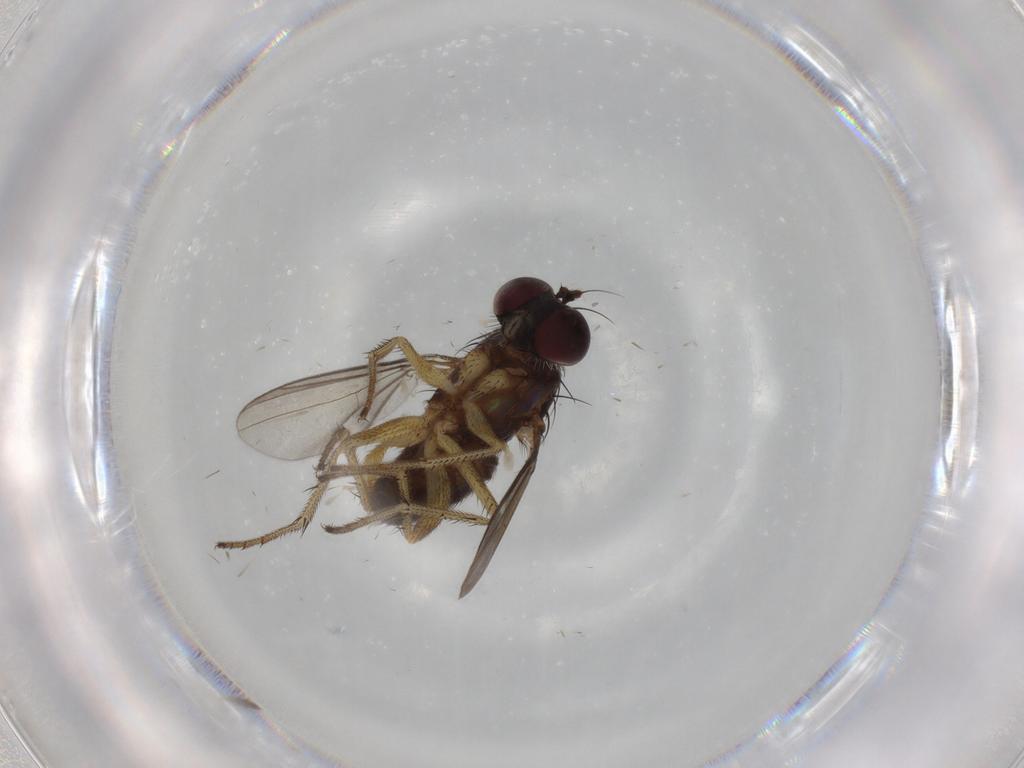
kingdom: Animalia
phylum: Arthropoda
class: Insecta
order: Diptera
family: Dolichopodidae
